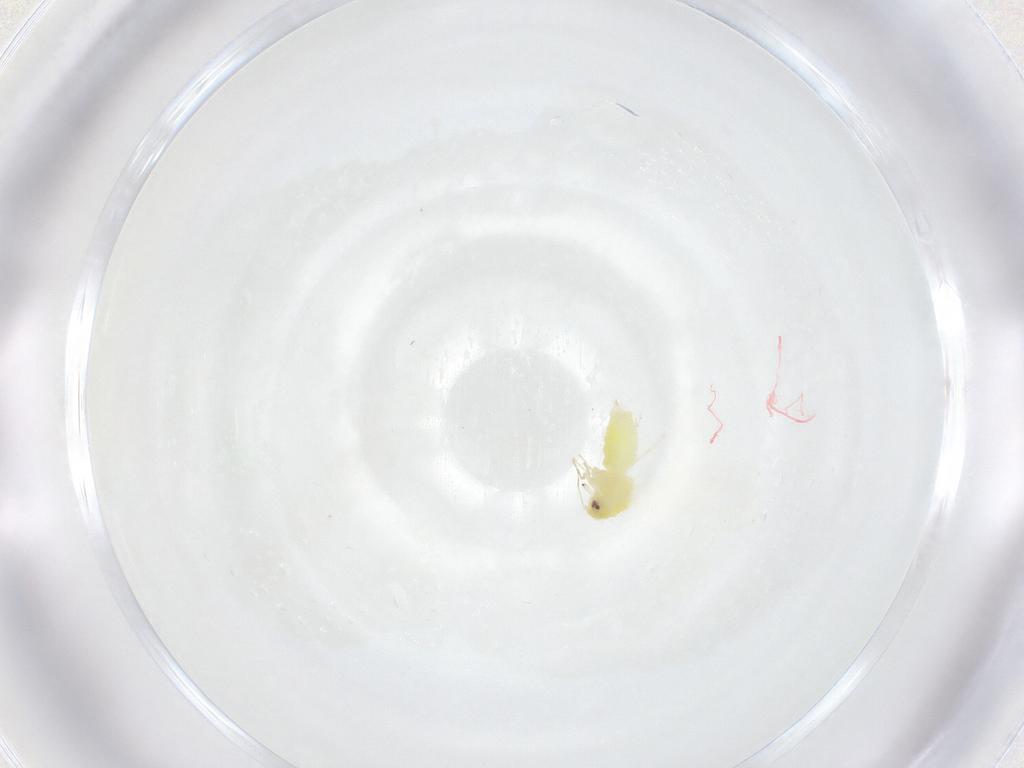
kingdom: Animalia
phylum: Arthropoda
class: Insecta
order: Hemiptera
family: Aleyrodidae
